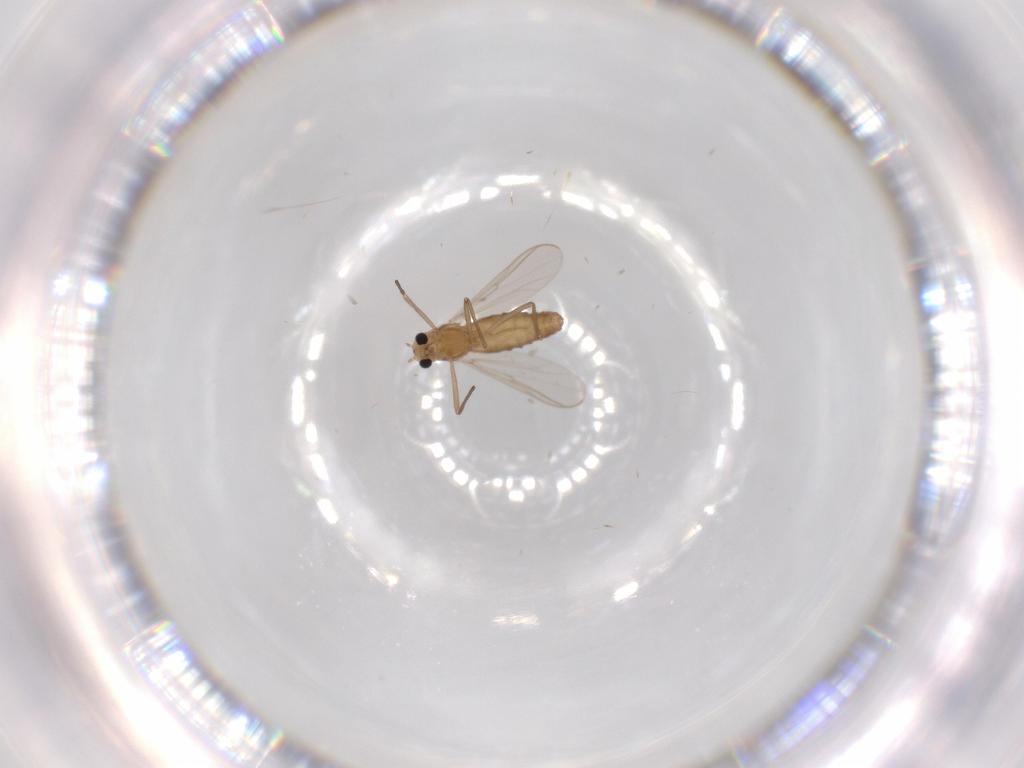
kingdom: Animalia
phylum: Arthropoda
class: Insecta
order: Diptera
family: Chironomidae
